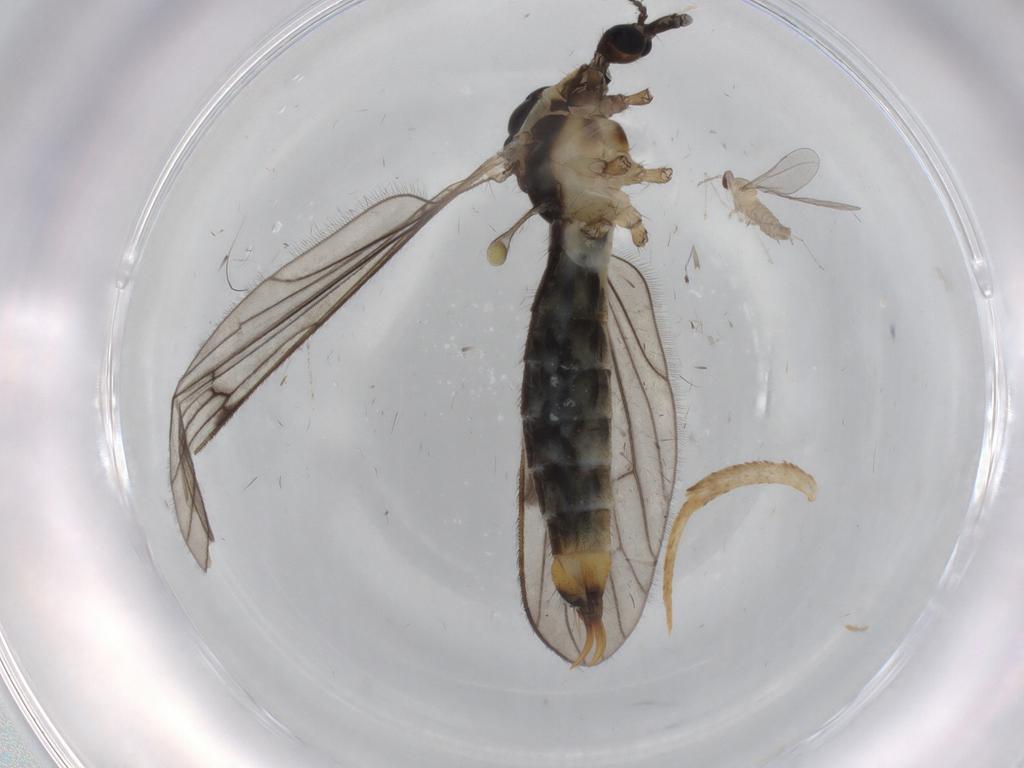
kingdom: Animalia
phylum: Arthropoda
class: Insecta
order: Diptera
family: Limoniidae
